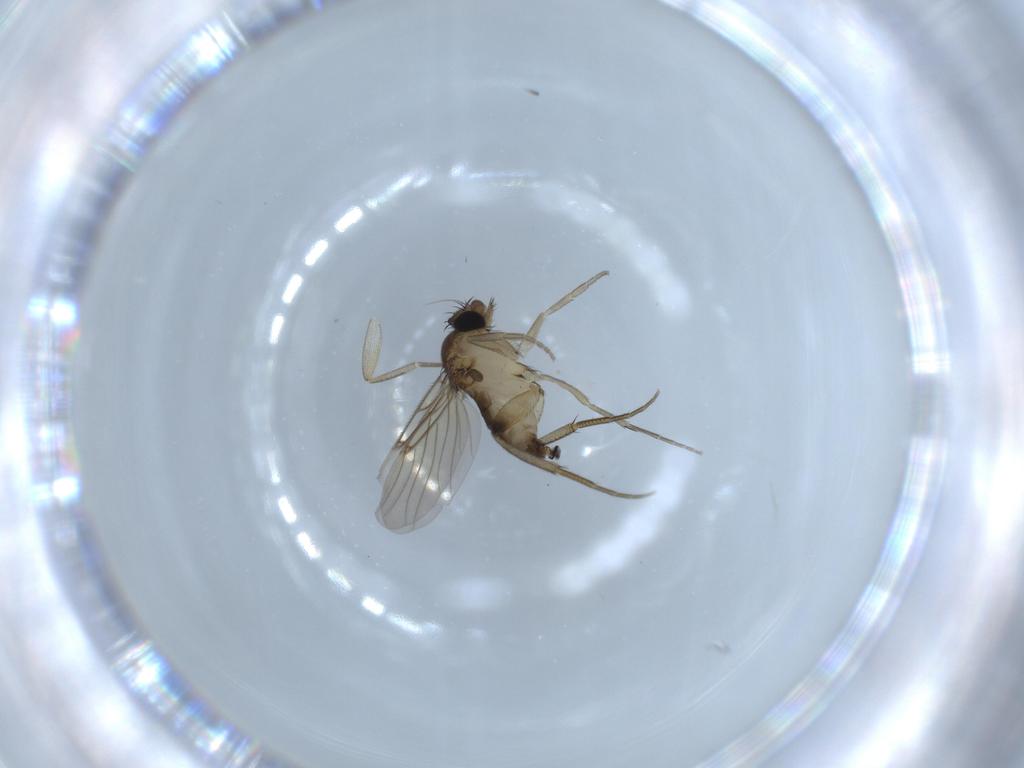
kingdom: Animalia
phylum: Arthropoda
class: Insecta
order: Diptera
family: Phoridae
